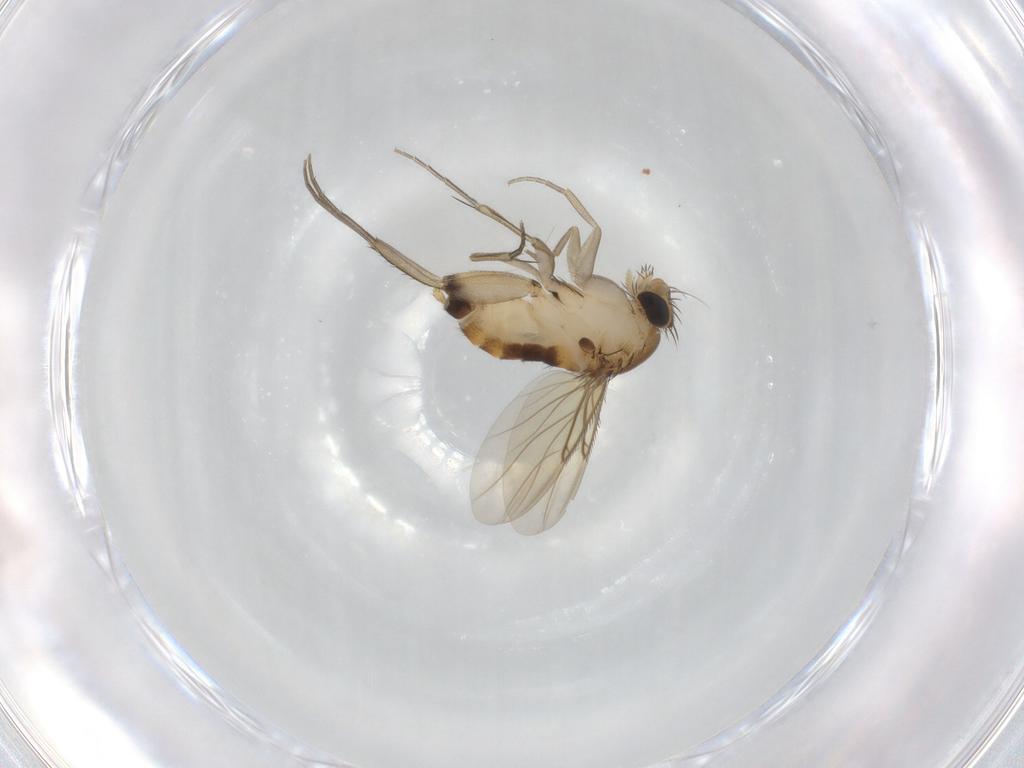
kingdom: Animalia
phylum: Arthropoda
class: Insecta
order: Diptera
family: Phoridae
